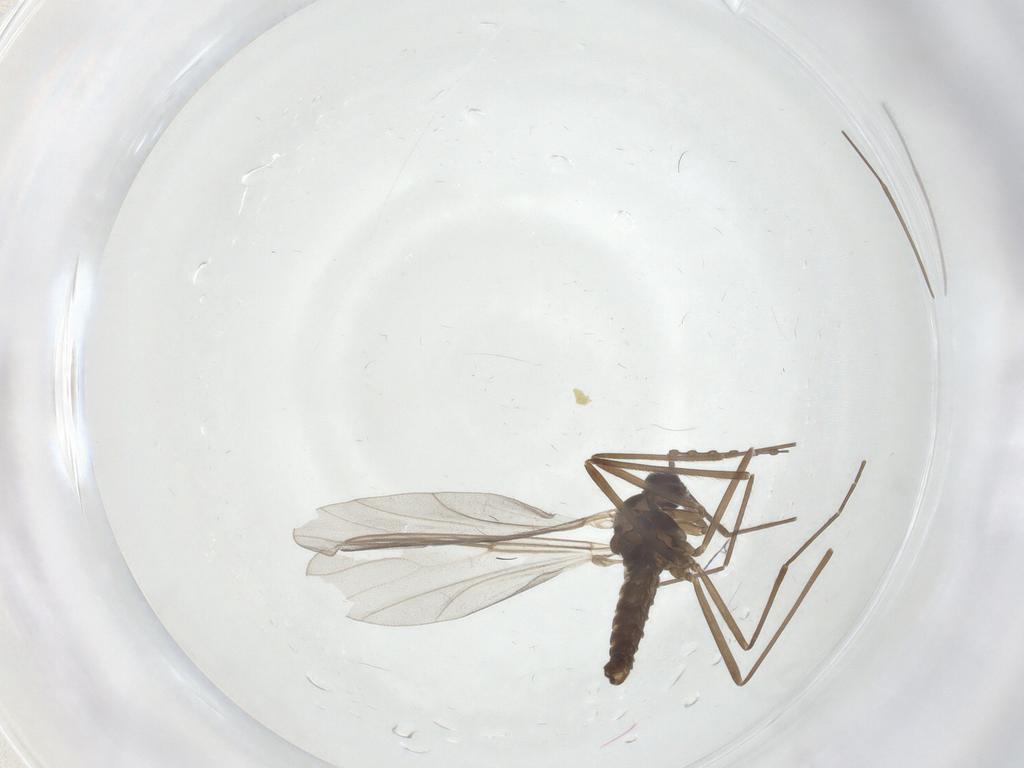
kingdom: Animalia
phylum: Arthropoda
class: Insecta
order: Diptera
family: Cecidomyiidae
